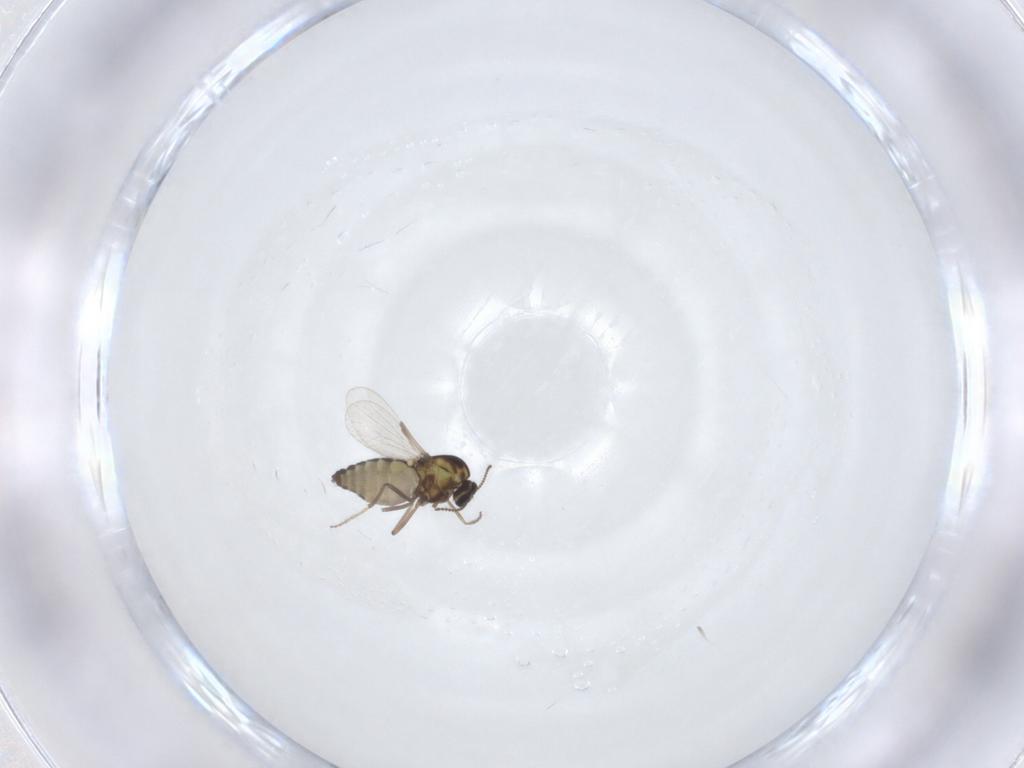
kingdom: Animalia
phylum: Arthropoda
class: Insecta
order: Diptera
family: Ceratopogonidae
